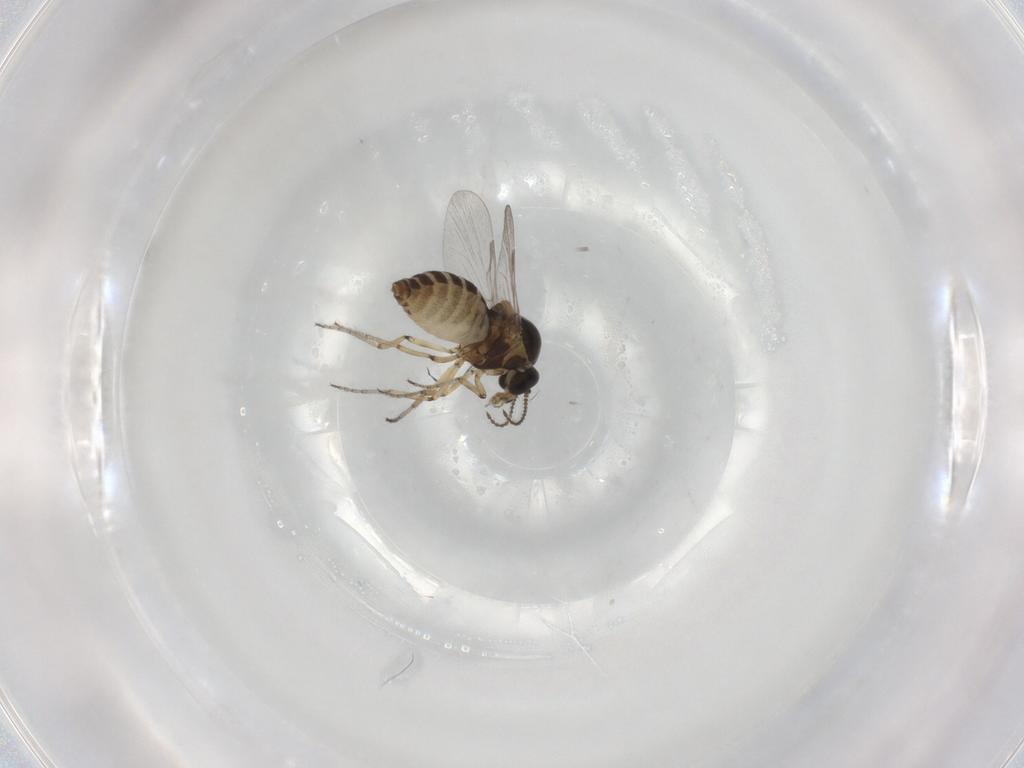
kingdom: Animalia
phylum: Arthropoda
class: Insecta
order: Diptera
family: Ceratopogonidae
